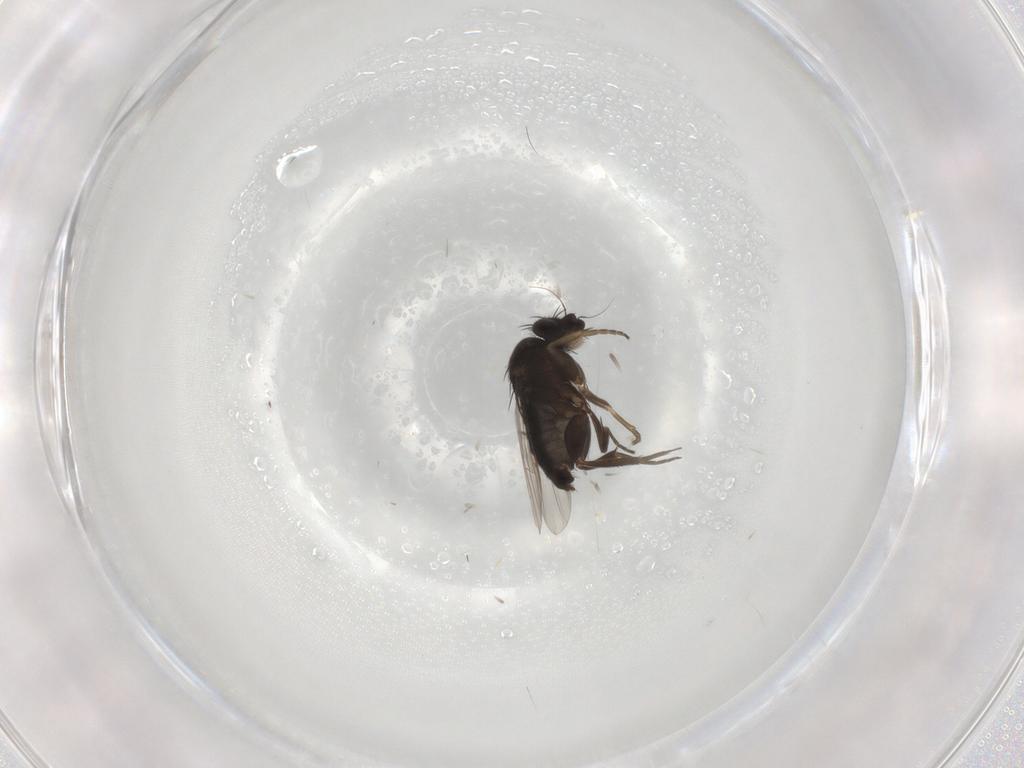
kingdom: Animalia
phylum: Arthropoda
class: Insecta
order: Diptera
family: Phoridae
